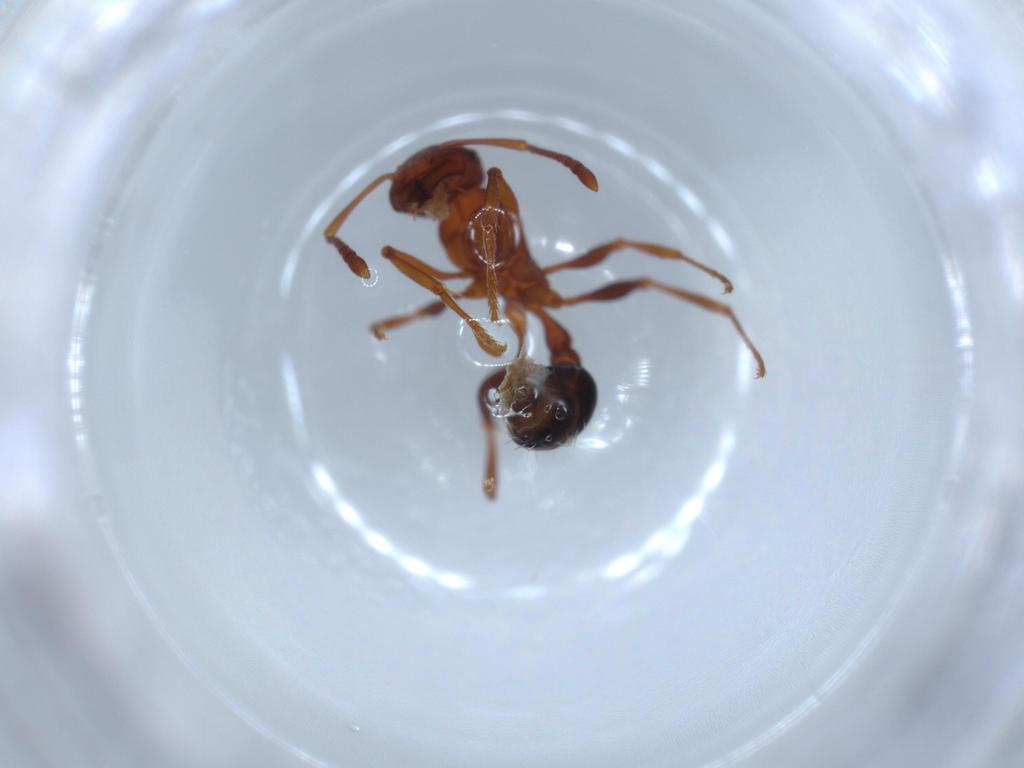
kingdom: Animalia
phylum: Arthropoda
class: Insecta
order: Hymenoptera
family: Formicidae
